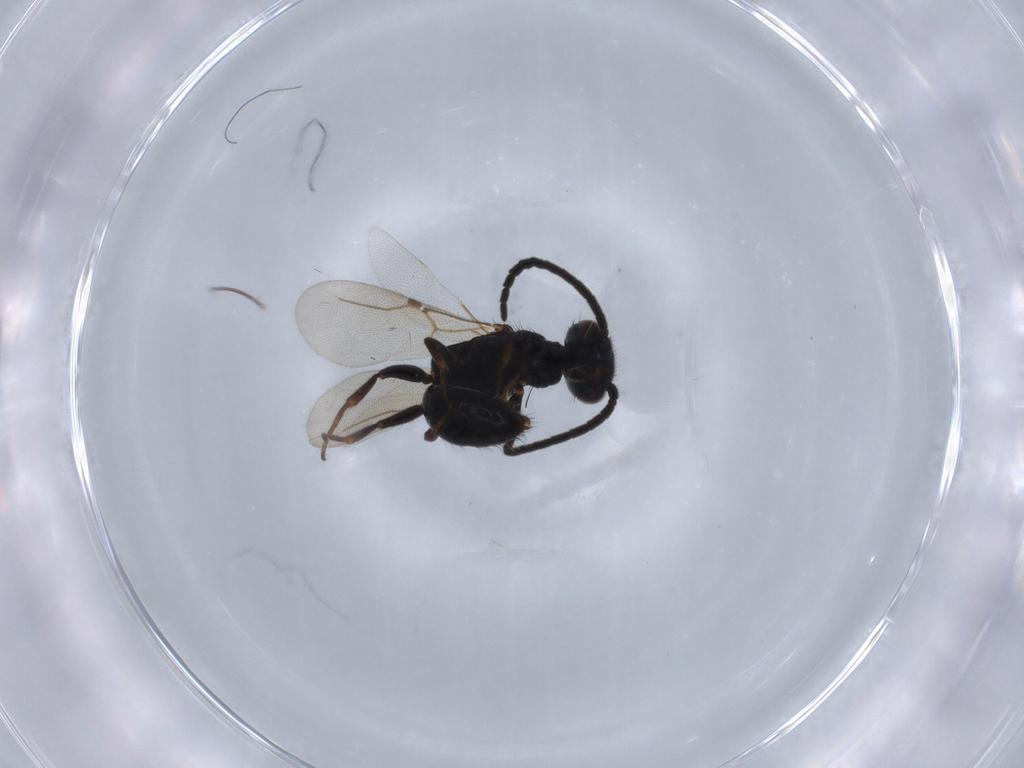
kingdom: Animalia
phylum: Arthropoda
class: Insecta
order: Hymenoptera
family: Bethylidae
